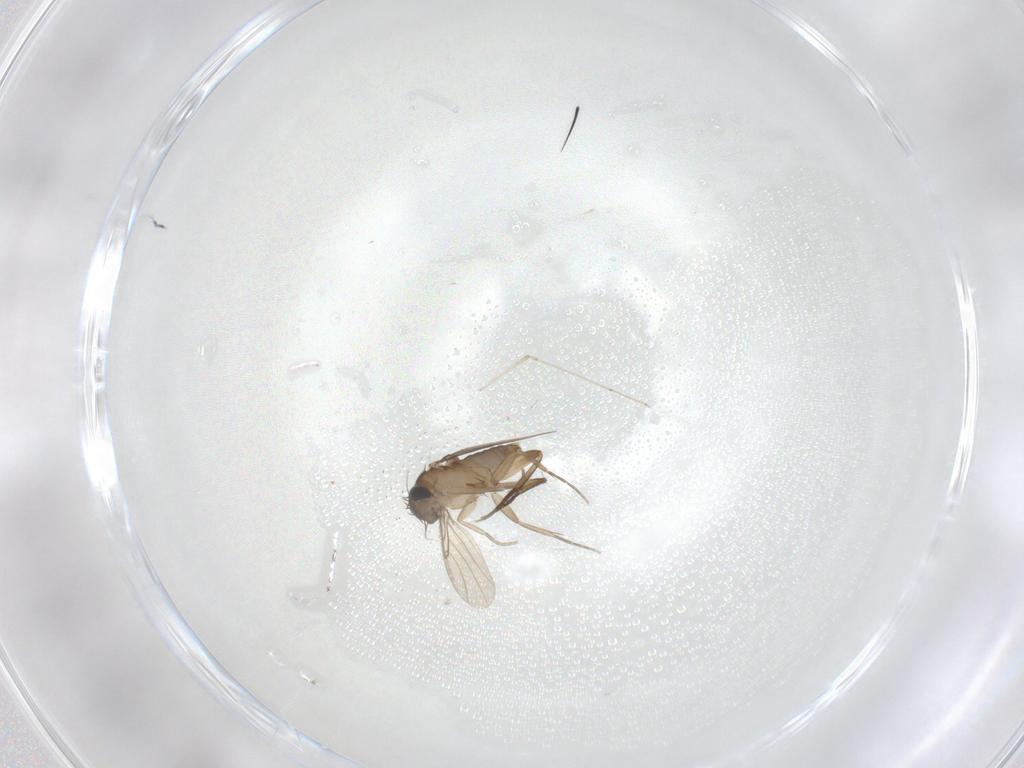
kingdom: Animalia
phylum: Arthropoda
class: Insecta
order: Diptera
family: Phoridae
